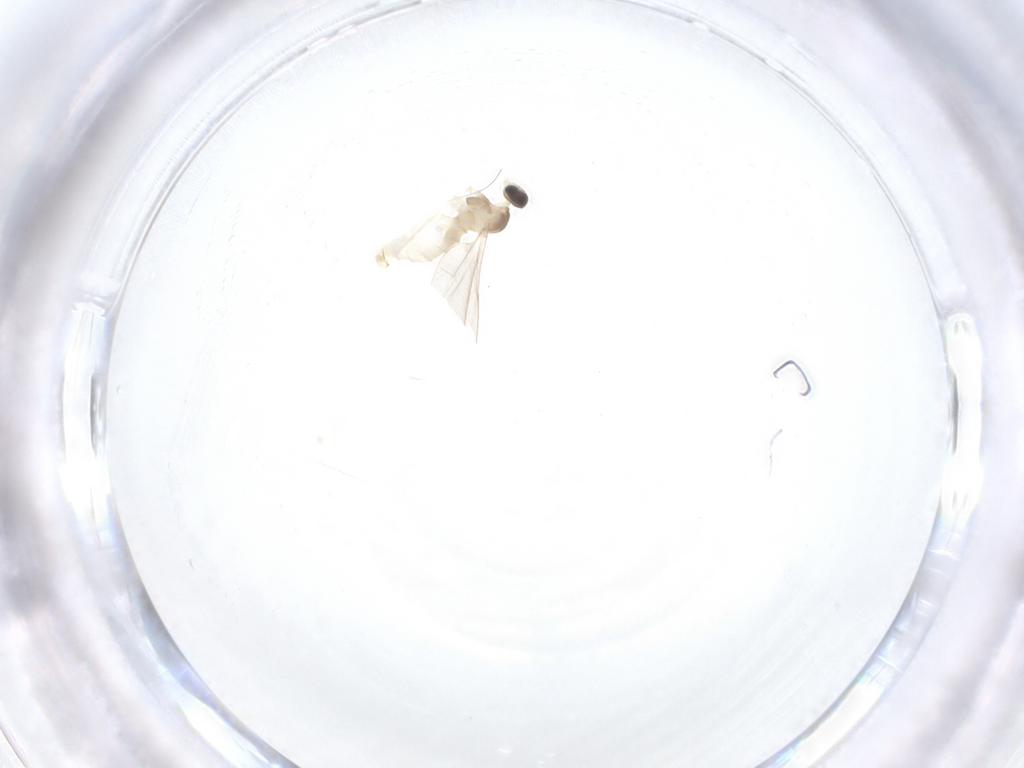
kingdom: Animalia
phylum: Arthropoda
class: Insecta
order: Diptera
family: Cecidomyiidae
